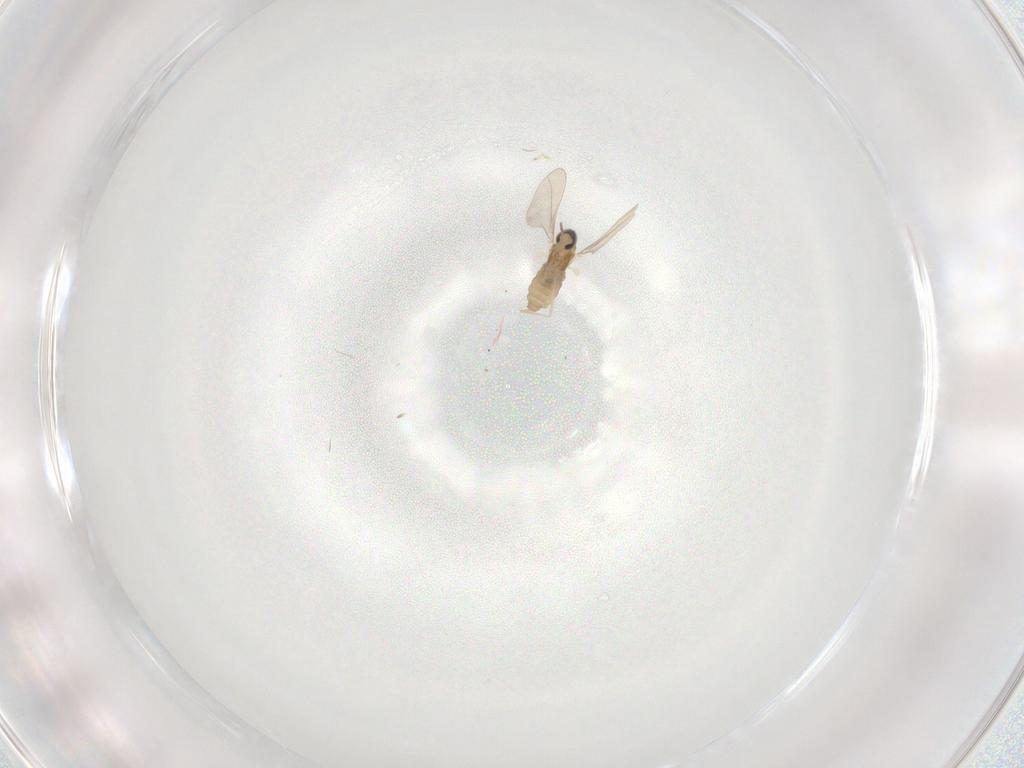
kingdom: Animalia
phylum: Arthropoda
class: Insecta
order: Diptera
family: Cecidomyiidae
